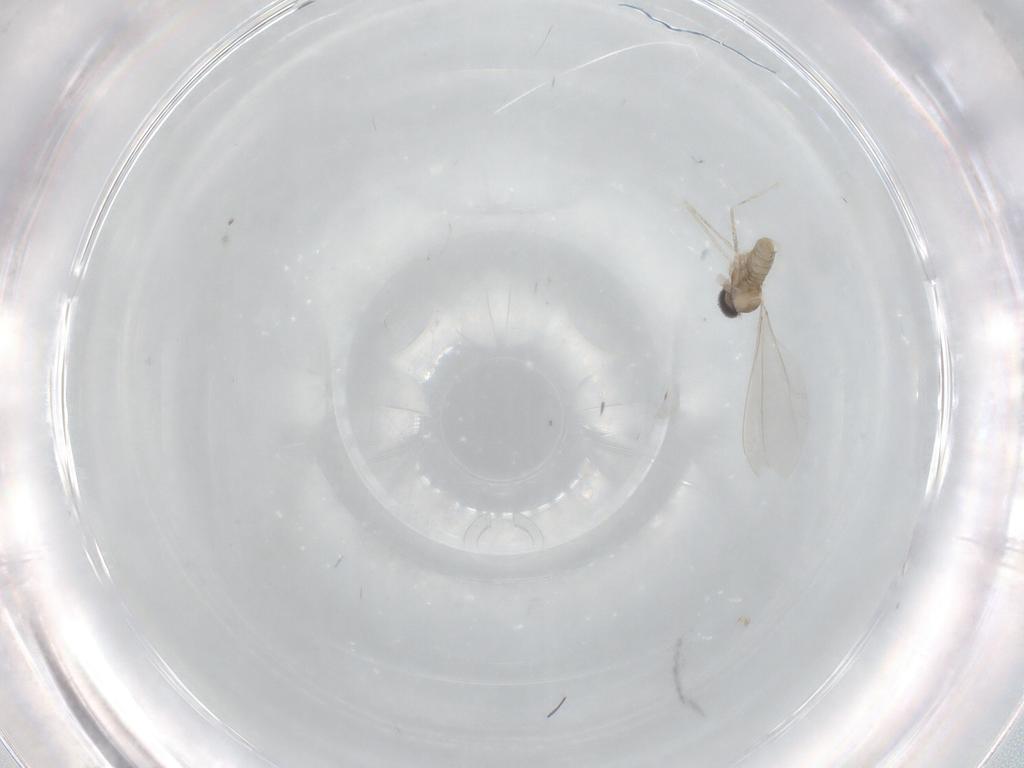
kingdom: Animalia
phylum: Arthropoda
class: Insecta
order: Diptera
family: Cecidomyiidae
